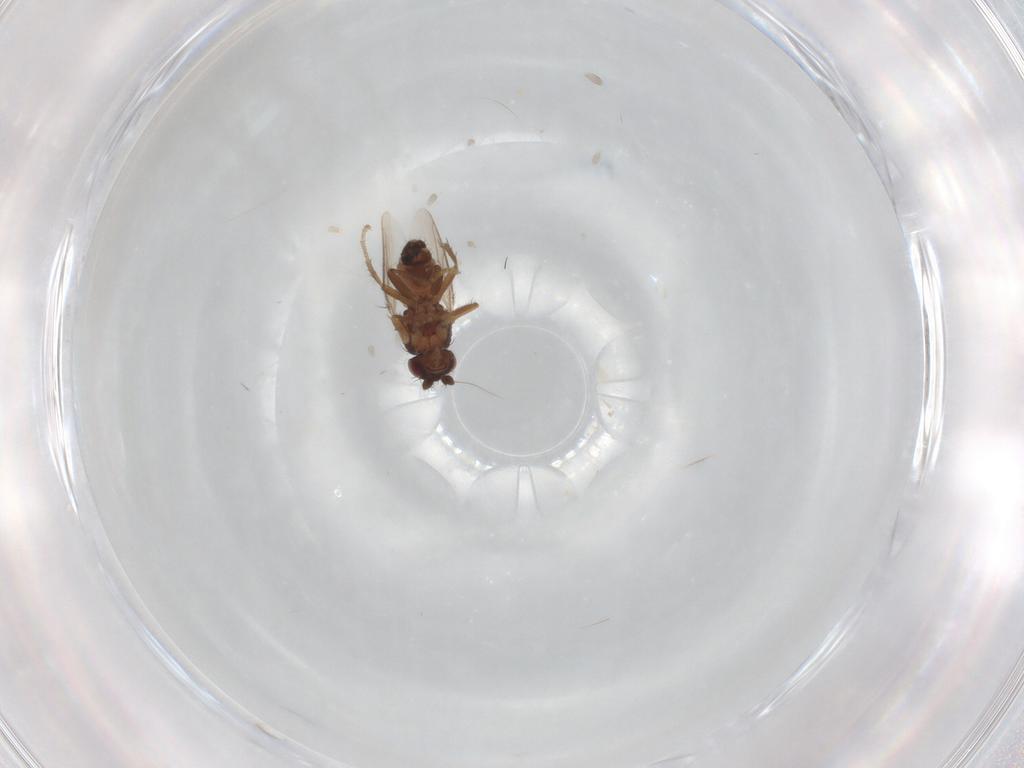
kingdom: Animalia
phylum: Arthropoda
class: Insecta
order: Diptera
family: Sphaeroceridae
